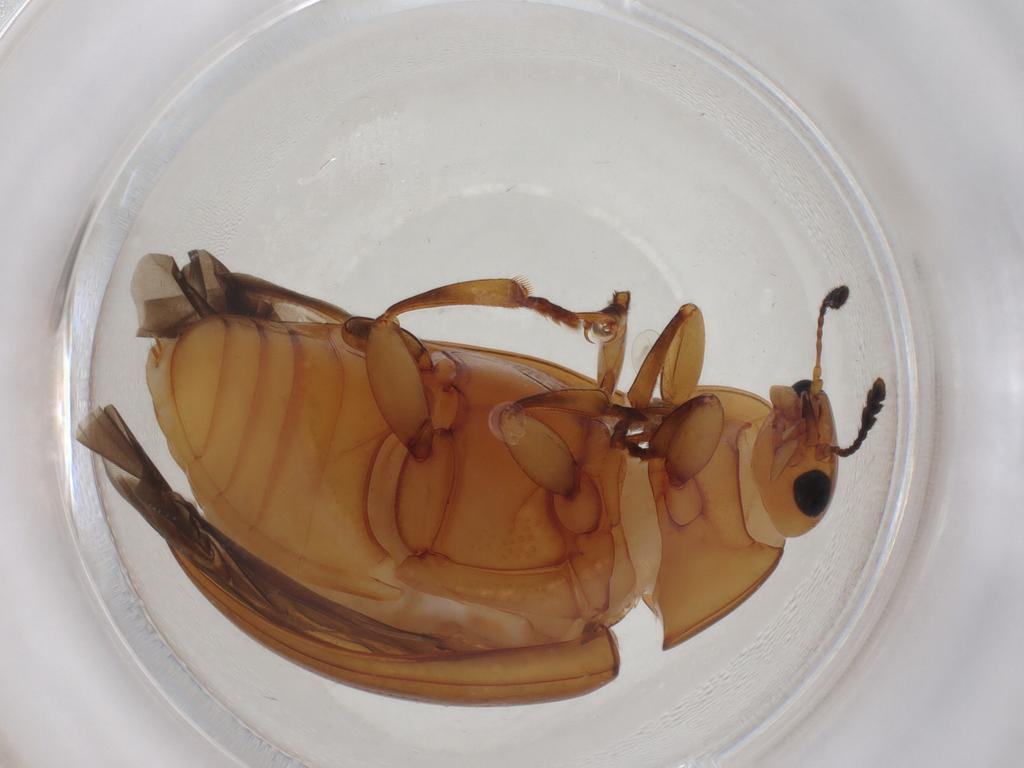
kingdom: Animalia
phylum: Arthropoda
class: Insecta
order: Coleoptera
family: Erotylidae
